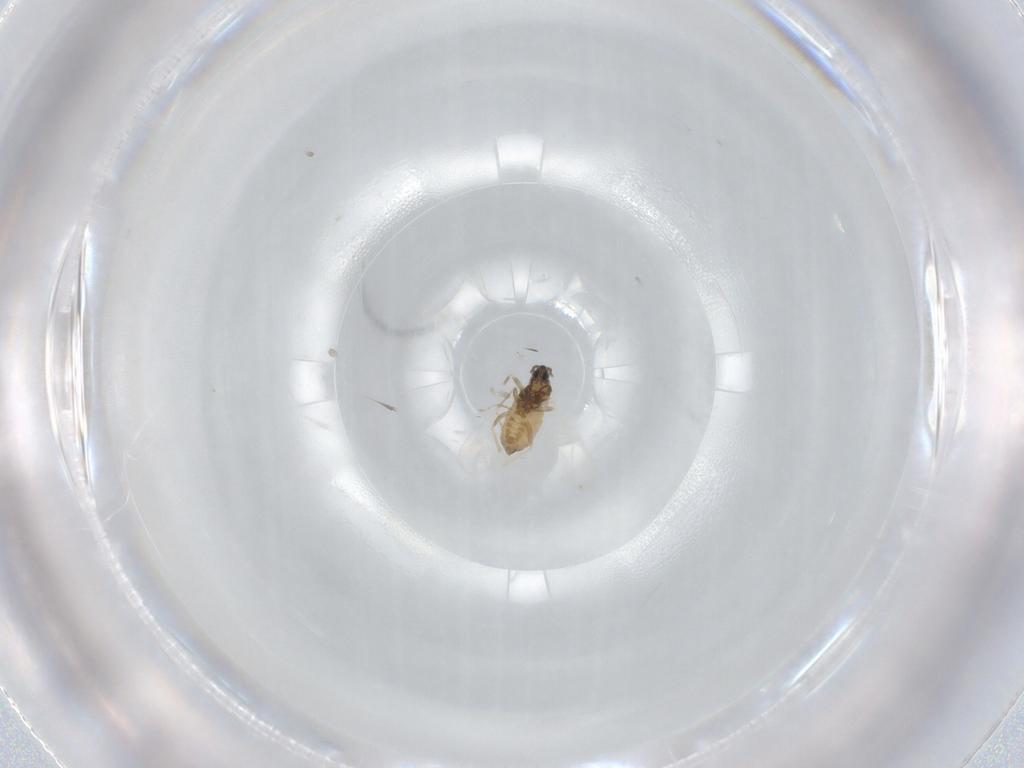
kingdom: Animalia
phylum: Arthropoda
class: Insecta
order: Diptera
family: Cecidomyiidae
